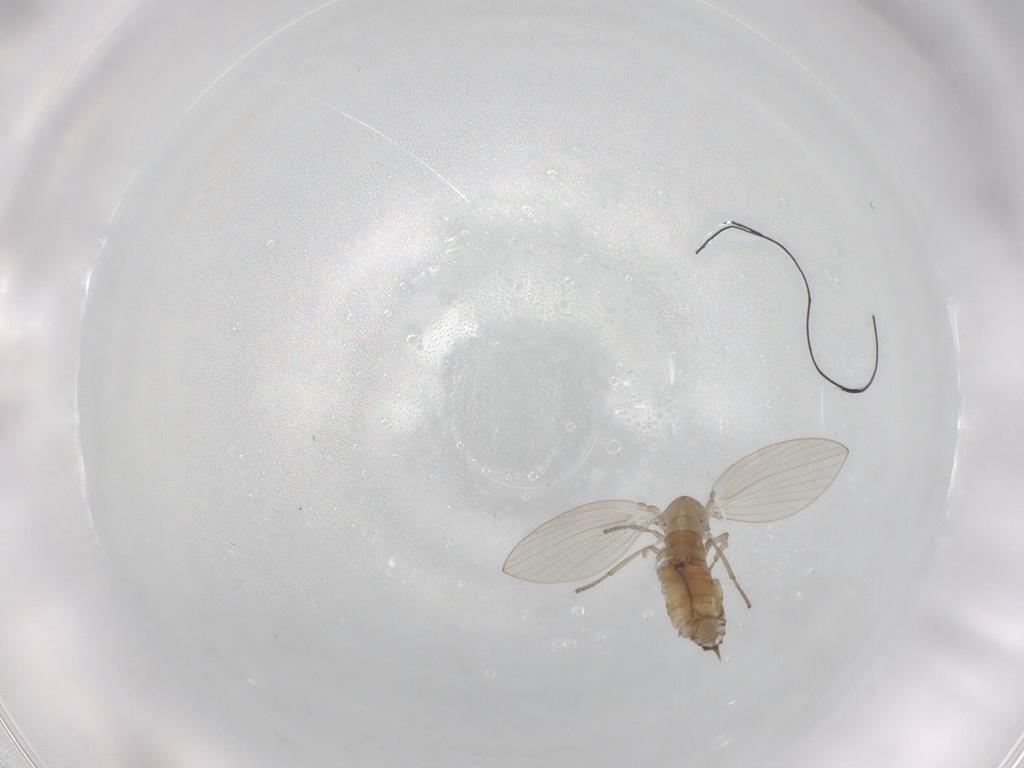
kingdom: Animalia
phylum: Arthropoda
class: Insecta
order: Diptera
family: Psychodidae
